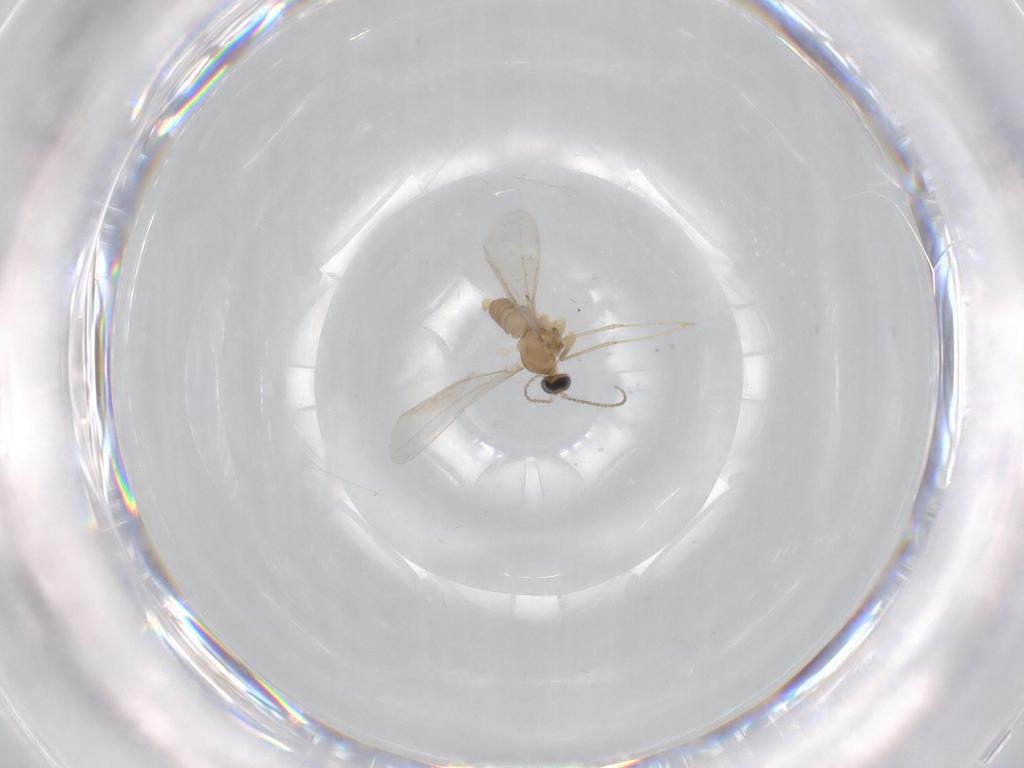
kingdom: Animalia
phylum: Arthropoda
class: Insecta
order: Diptera
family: Cecidomyiidae
